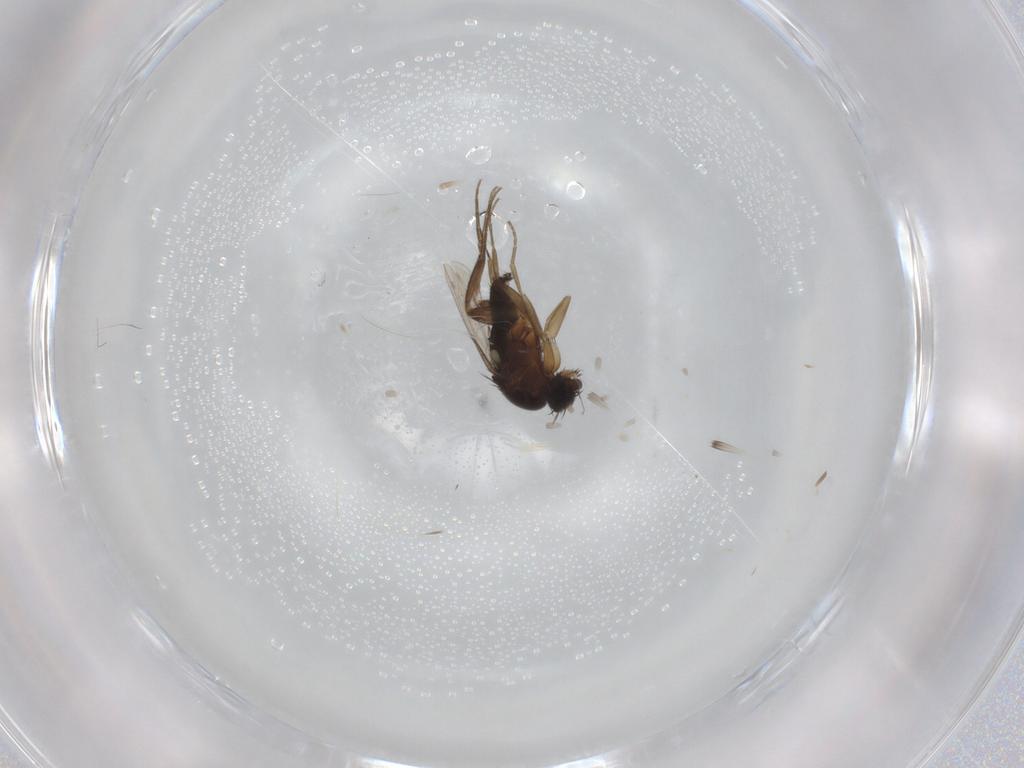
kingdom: Animalia
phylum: Arthropoda
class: Insecta
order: Diptera
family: Phoridae
